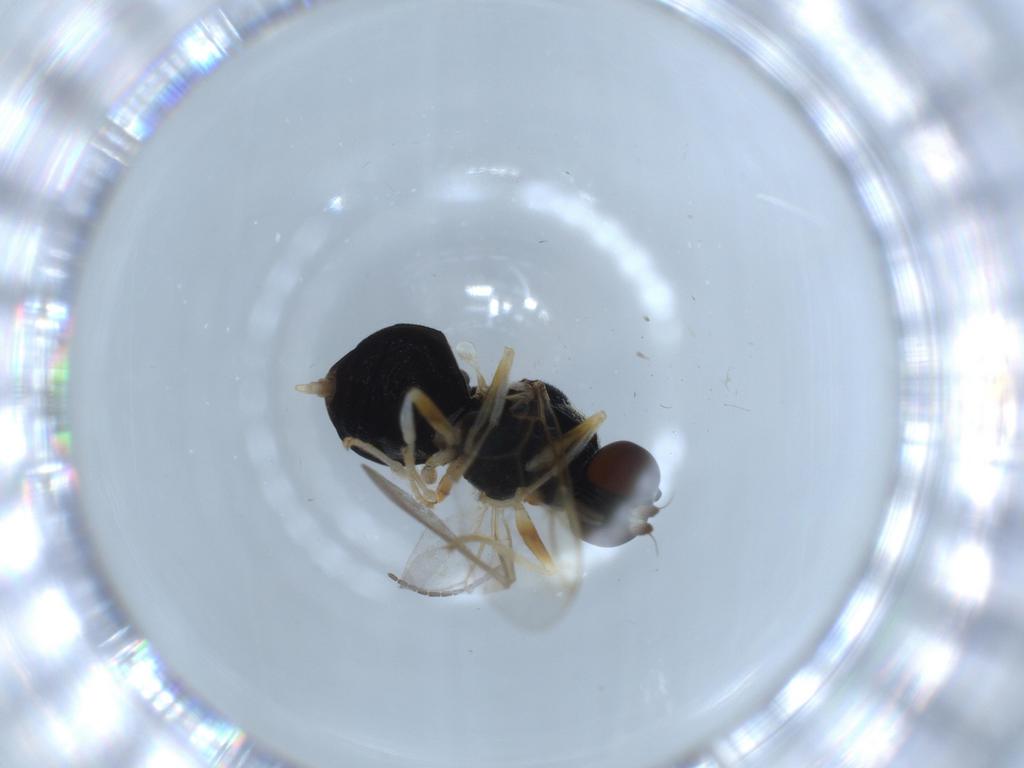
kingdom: Animalia
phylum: Arthropoda
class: Insecta
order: Diptera
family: Stratiomyidae
